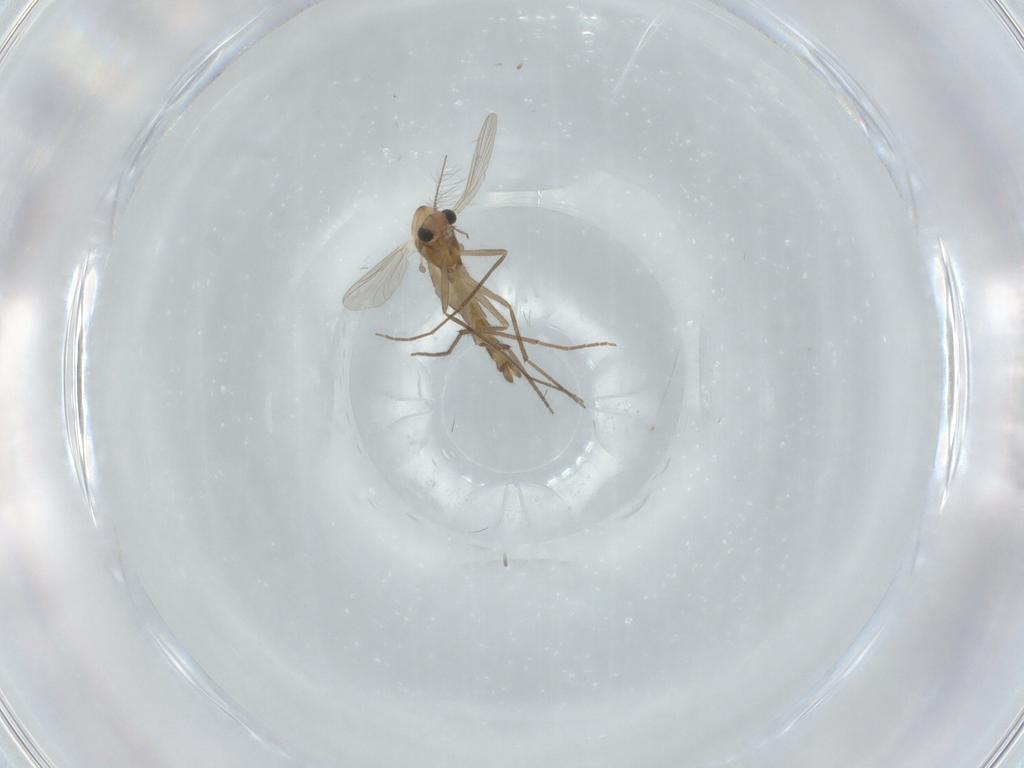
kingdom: Animalia
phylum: Arthropoda
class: Insecta
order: Diptera
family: Chironomidae
